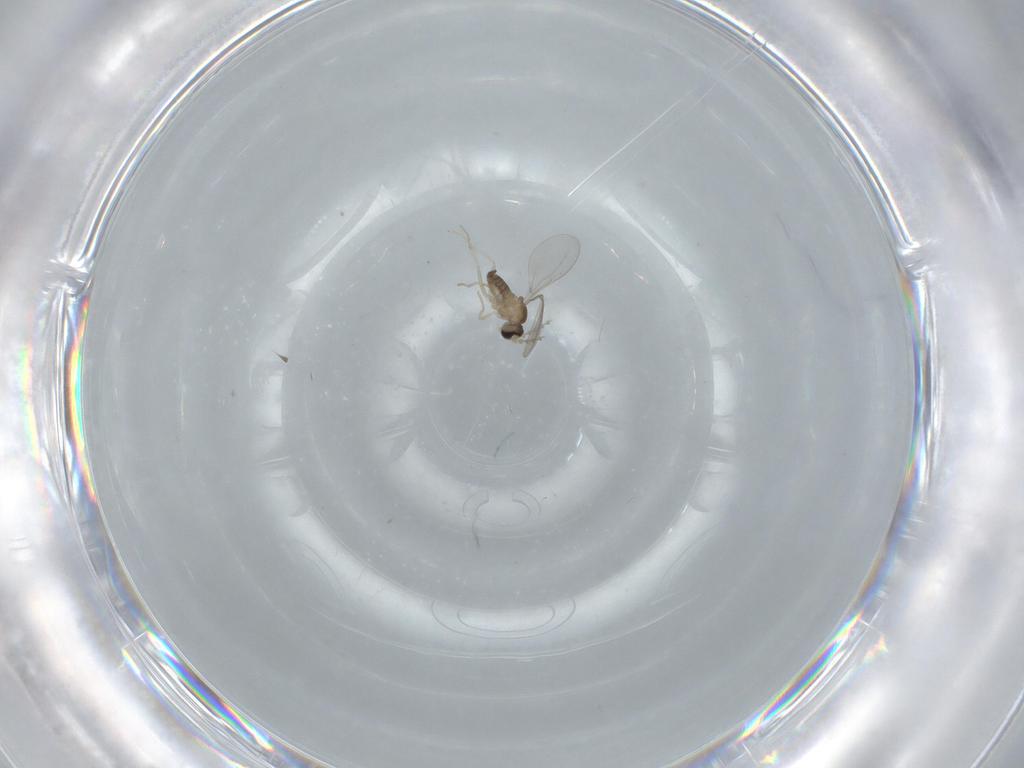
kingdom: Animalia
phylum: Arthropoda
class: Insecta
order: Diptera
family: Cecidomyiidae
